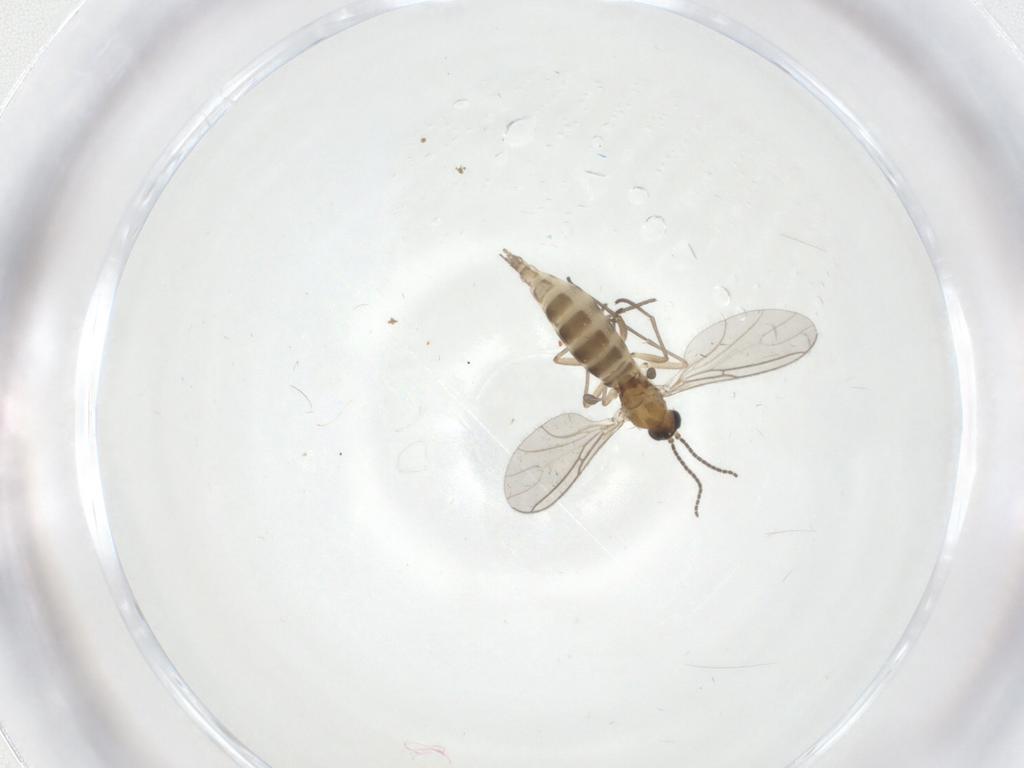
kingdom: Animalia
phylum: Arthropoda
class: Insecta
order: Diptera
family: Sciaridae
